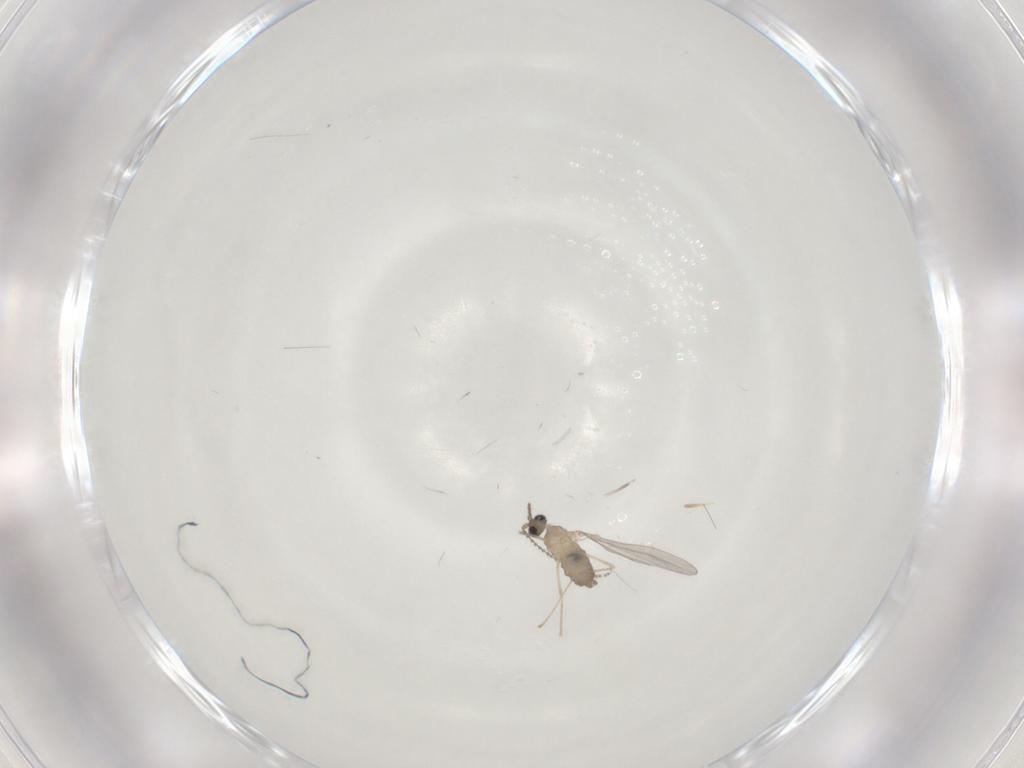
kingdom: Animalia
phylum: Arthropoda
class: Insecta
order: Diptera
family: Cecidomyiidae
